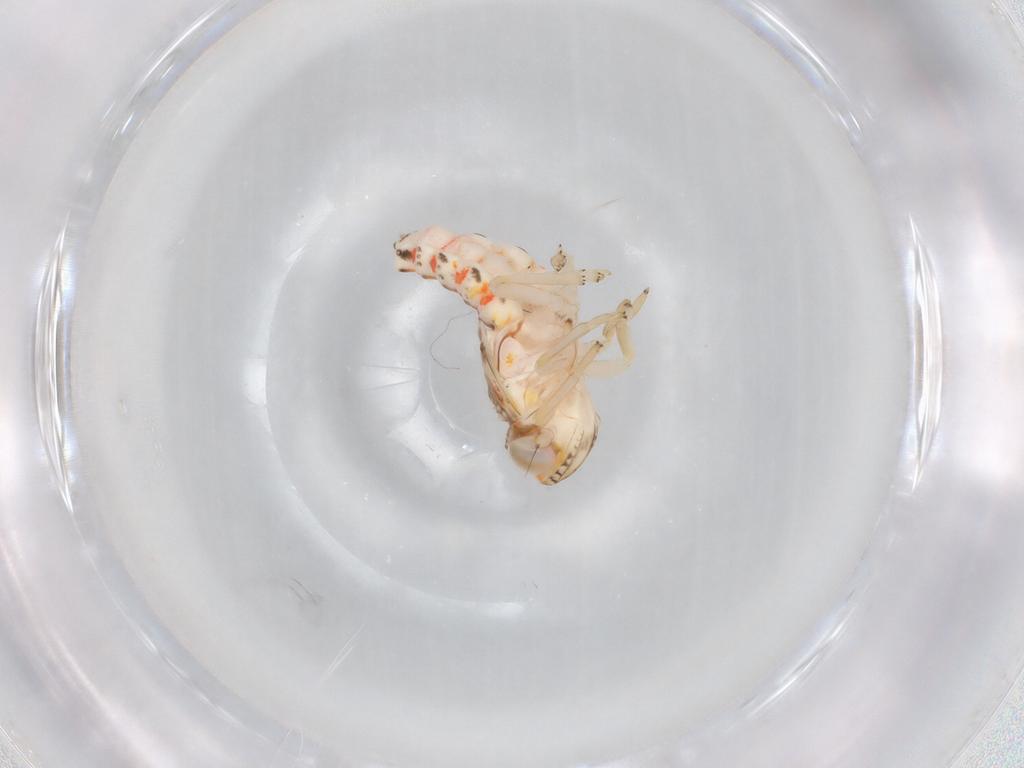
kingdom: Animalia
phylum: Arthropoda
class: Insecta
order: Hemiptera
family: Nogodinidae
